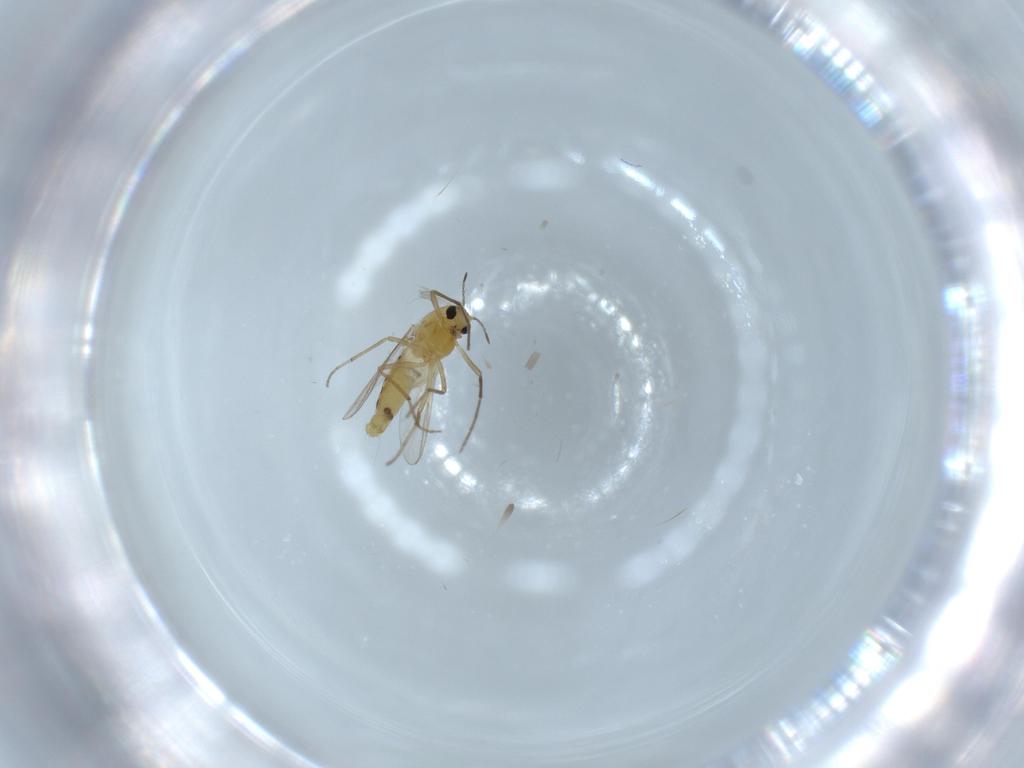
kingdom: Animalia
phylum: Arthropoda
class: Insecta
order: Diptera
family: Chironomidae
